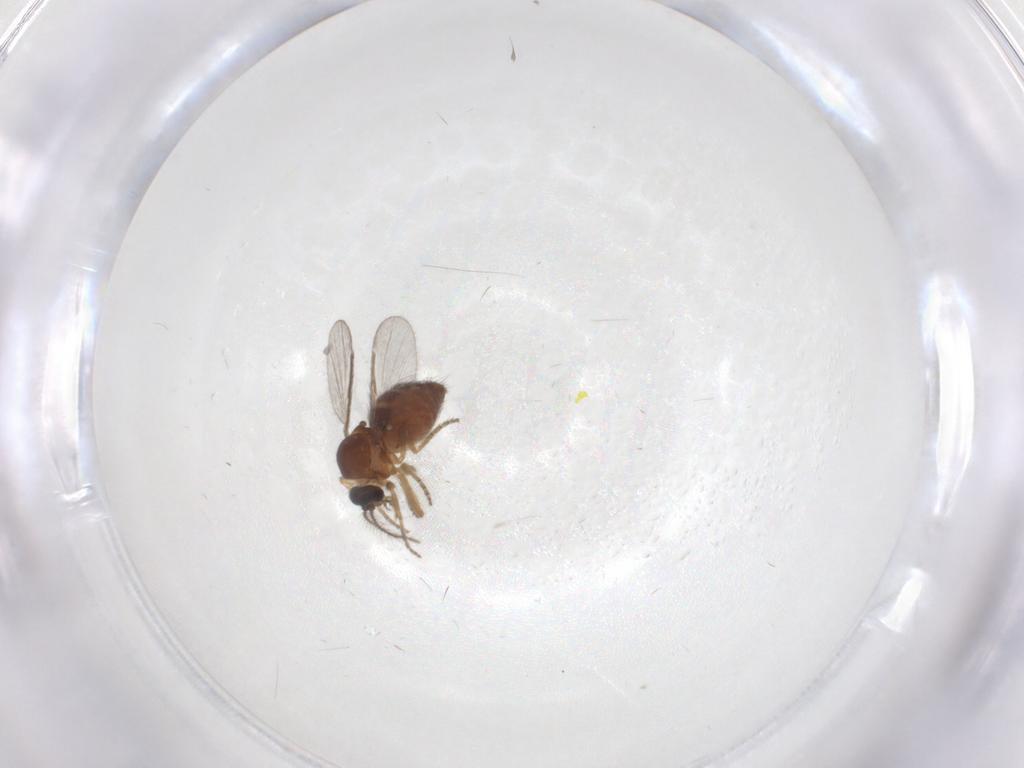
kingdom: Animalia
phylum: Arthropoda
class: Insecta
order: Diptera
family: Ceratopogonidae
